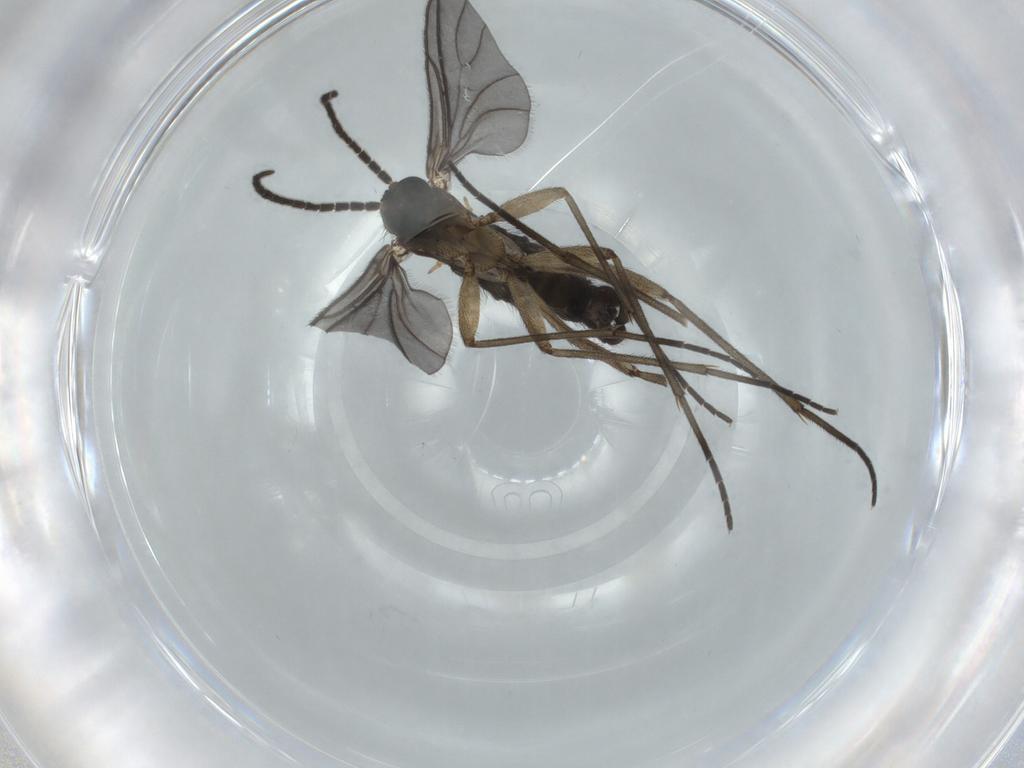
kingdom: Animalia
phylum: Arthropoda
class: Insecta
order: Diptera
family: Sciaridae
